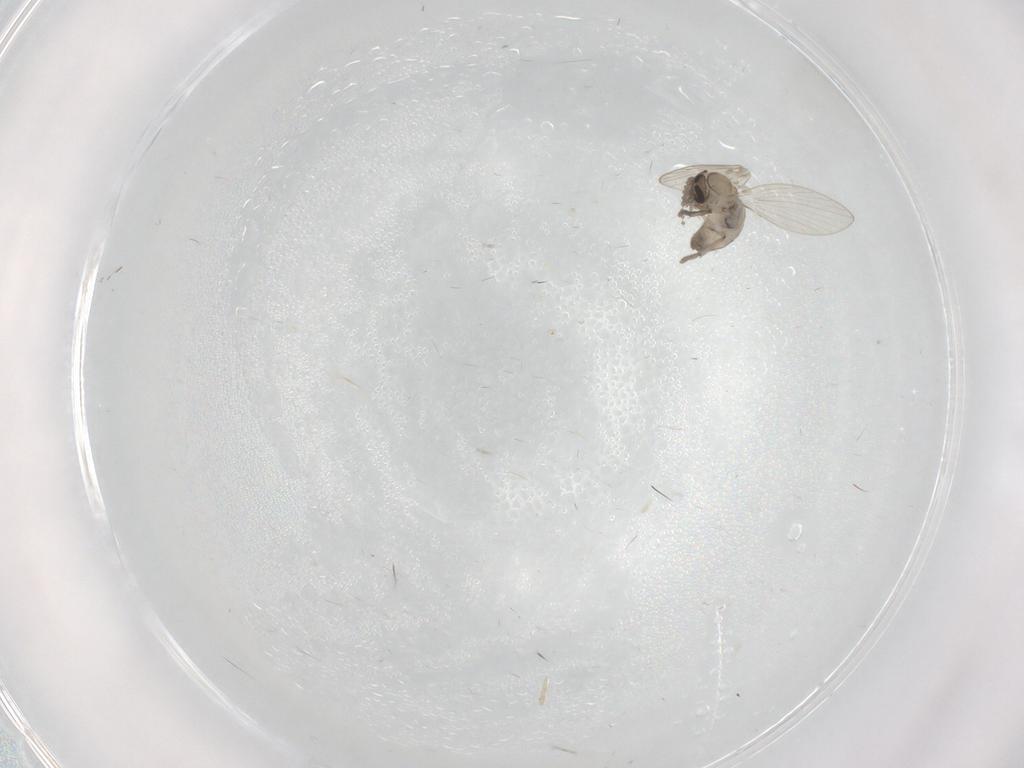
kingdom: Animalia
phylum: Arthropoda
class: Insecta
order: Diptera
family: Psychodidae
